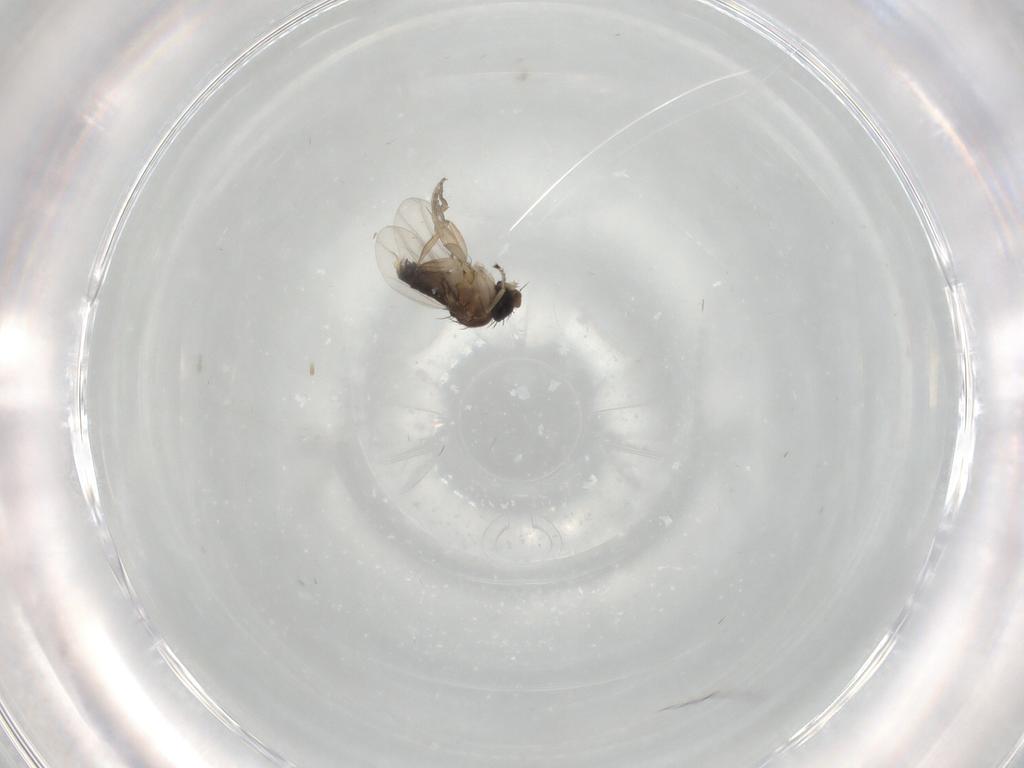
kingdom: Animalia
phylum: Arthropoda
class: Insecta
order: Diptera
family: Phoridae
